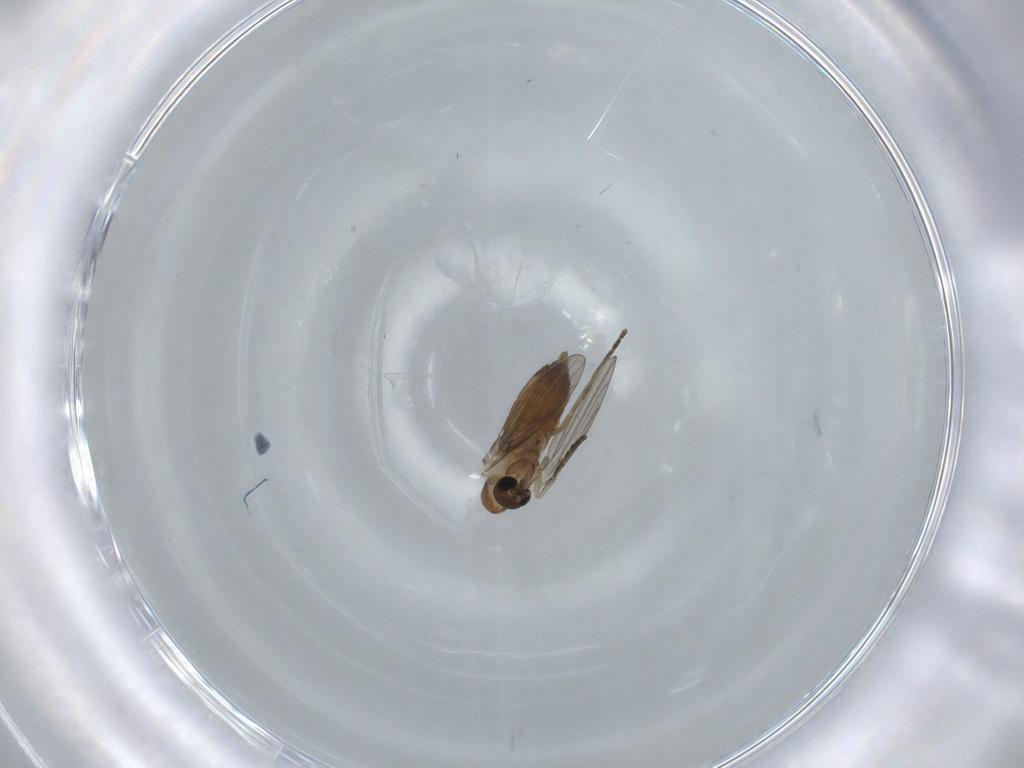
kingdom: Animalia
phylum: Arthropoda
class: Insecta
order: Diptera
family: Psychodidae
